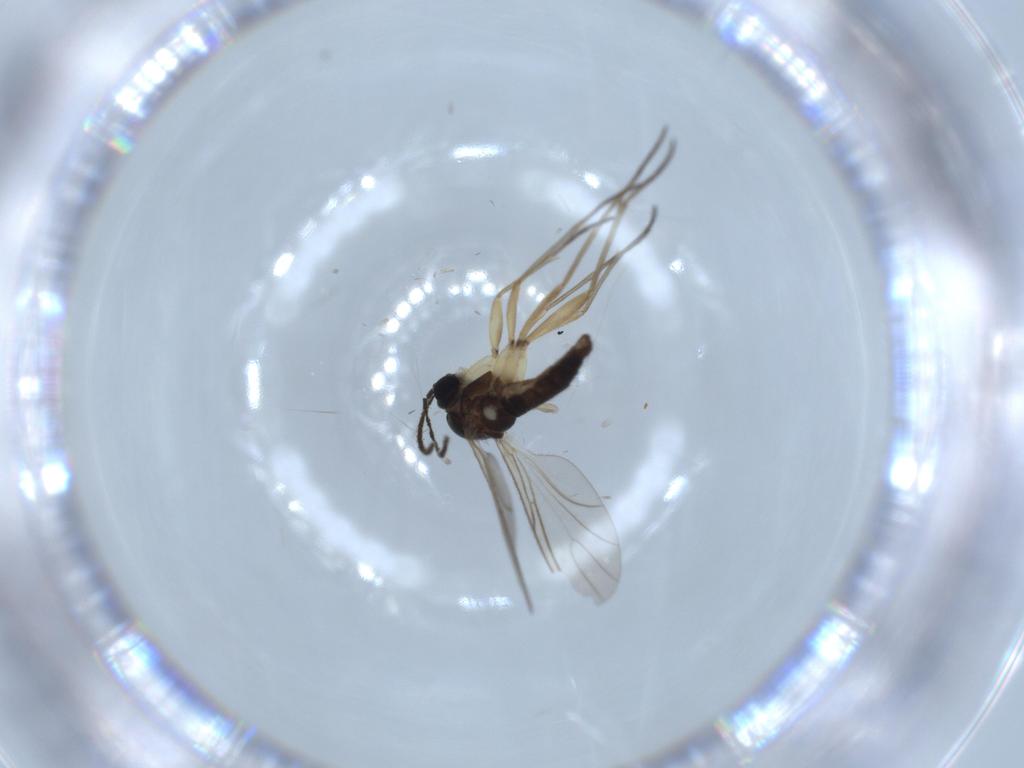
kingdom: Animalia
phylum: Arthropoda
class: Insecta
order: Diptera
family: Sciaridae
